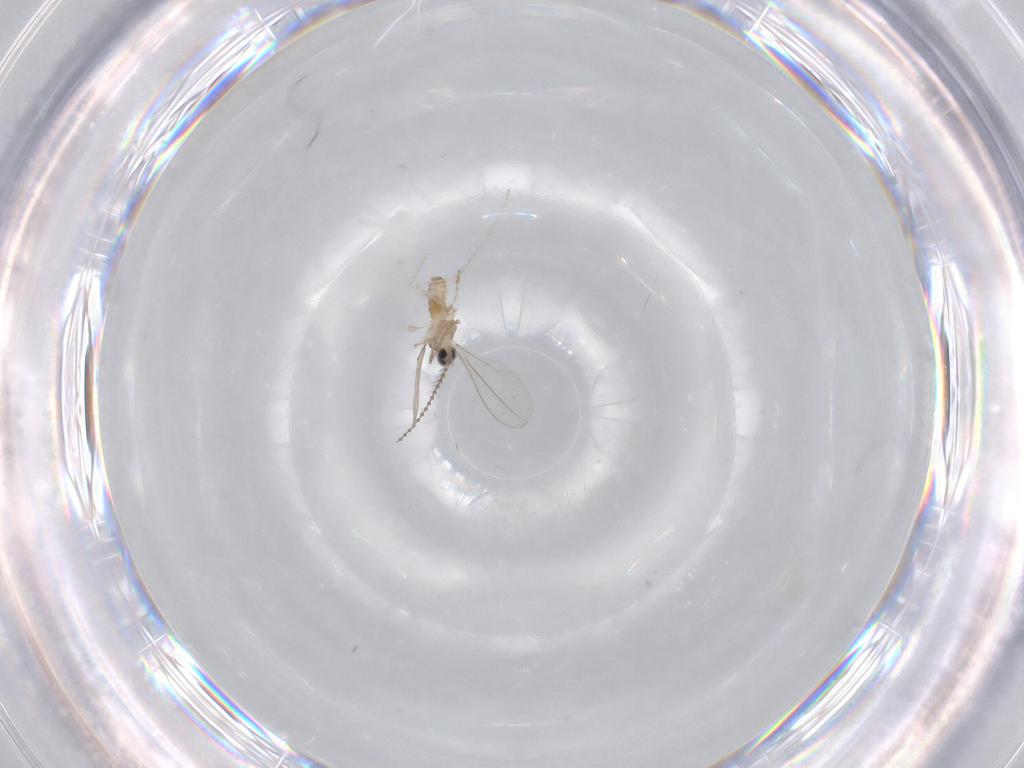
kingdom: Animalia
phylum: Arthropoda
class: Insecta
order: Diptera
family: Cecidomyiidae
